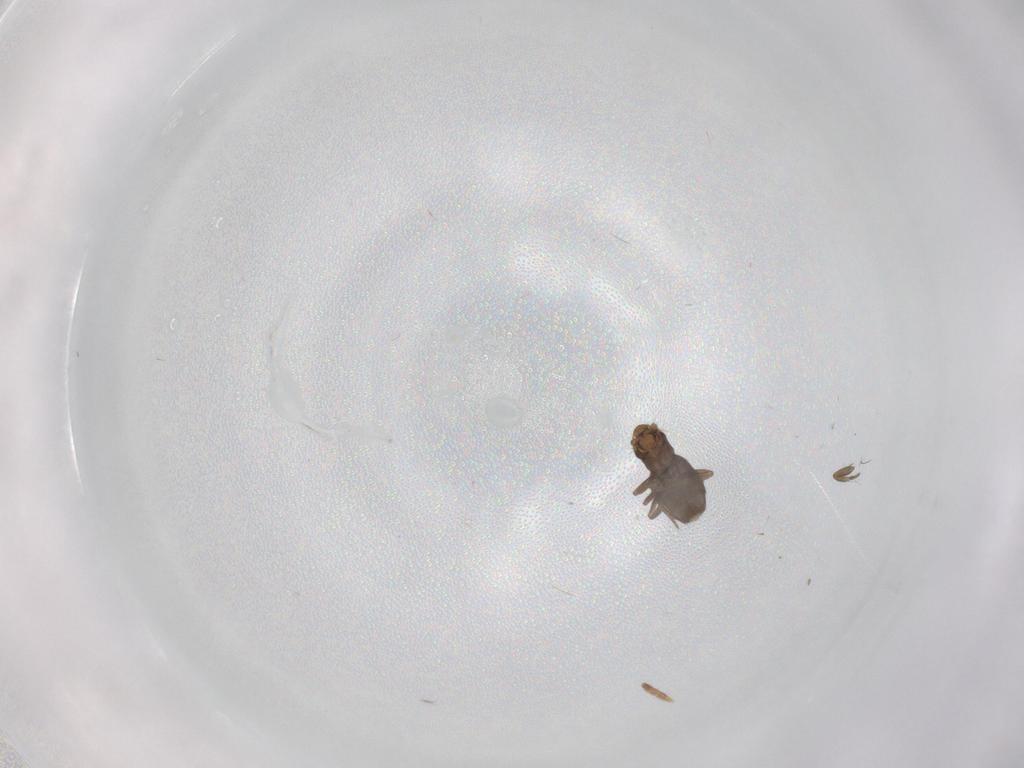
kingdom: Animalia
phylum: Arthropoda
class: Insecta
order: Diptera
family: Phoridae
